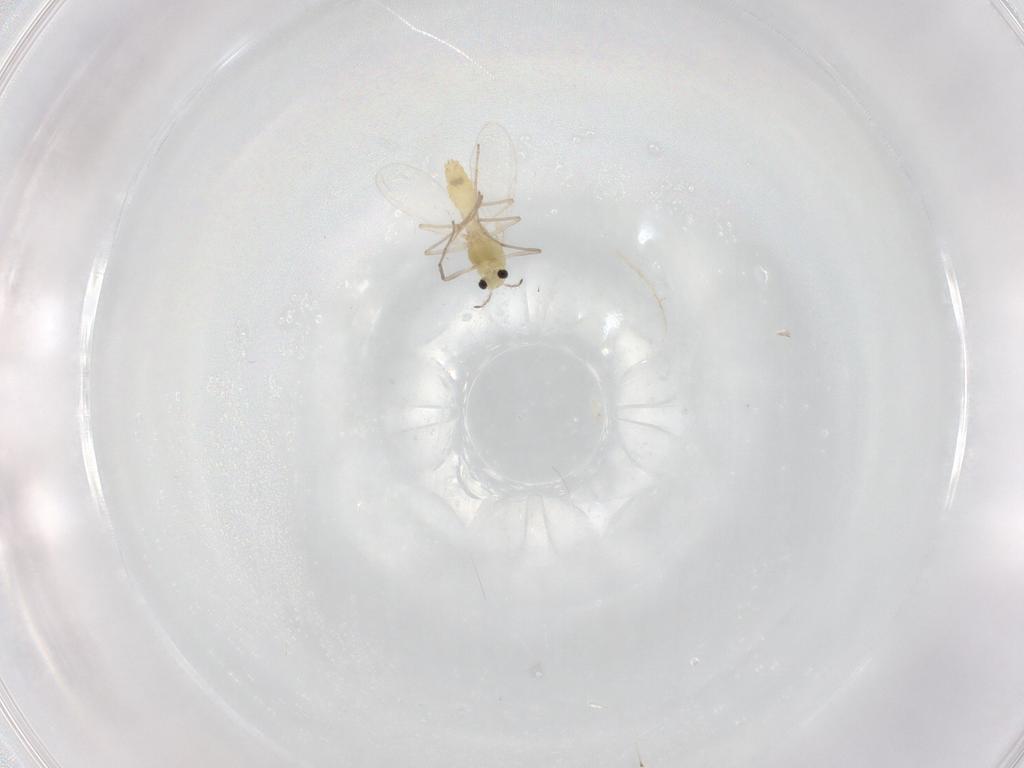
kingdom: Animalia
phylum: Arthropoda
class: Insecta
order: Diptera
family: Chironomidae
